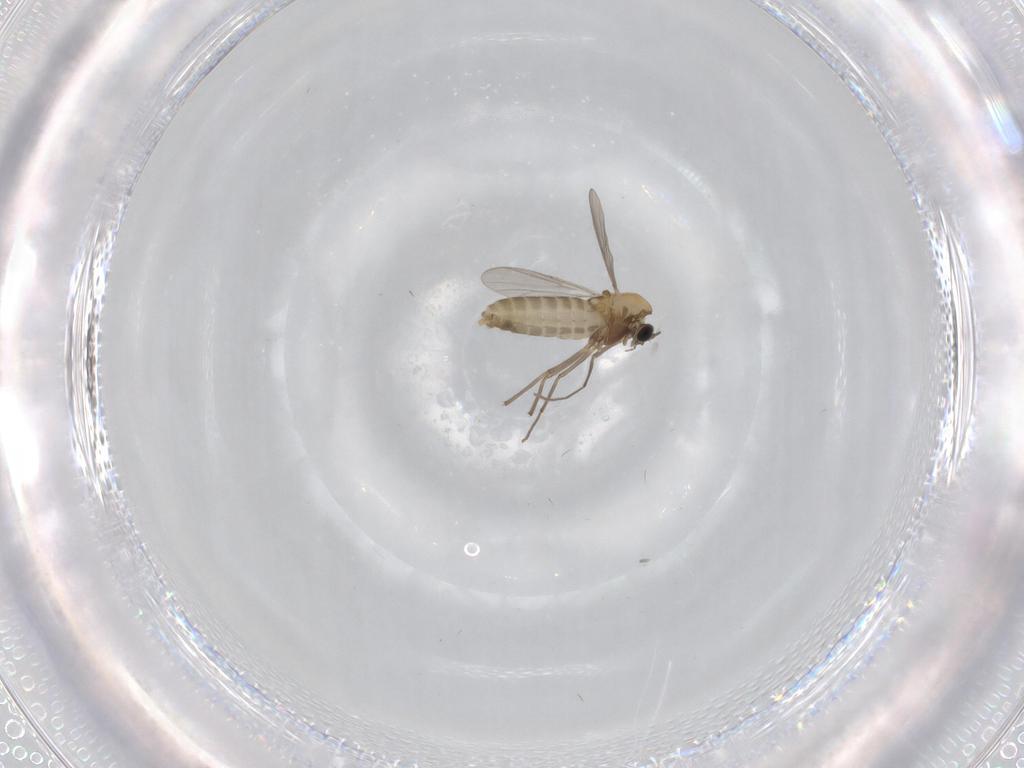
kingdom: Animalia
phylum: Arthropoda
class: Insecta
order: Diptera
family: Chironomidae
